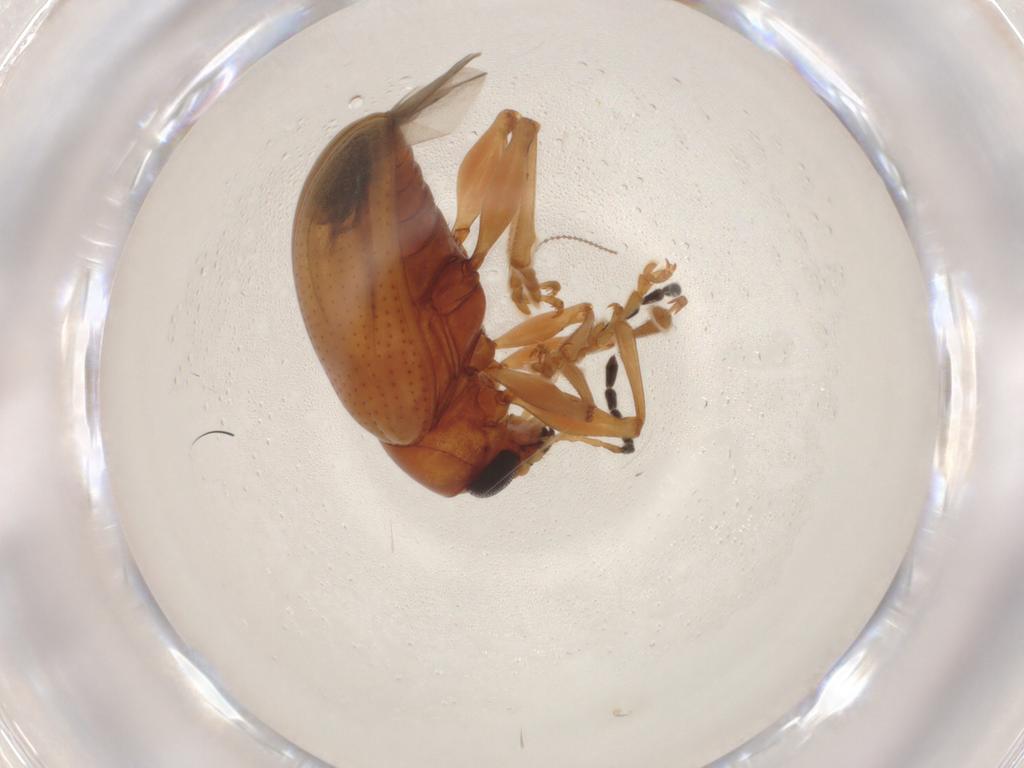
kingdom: Animalia
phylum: Arthropoda
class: Insecta
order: Coleoptera
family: Chrysomelidae
